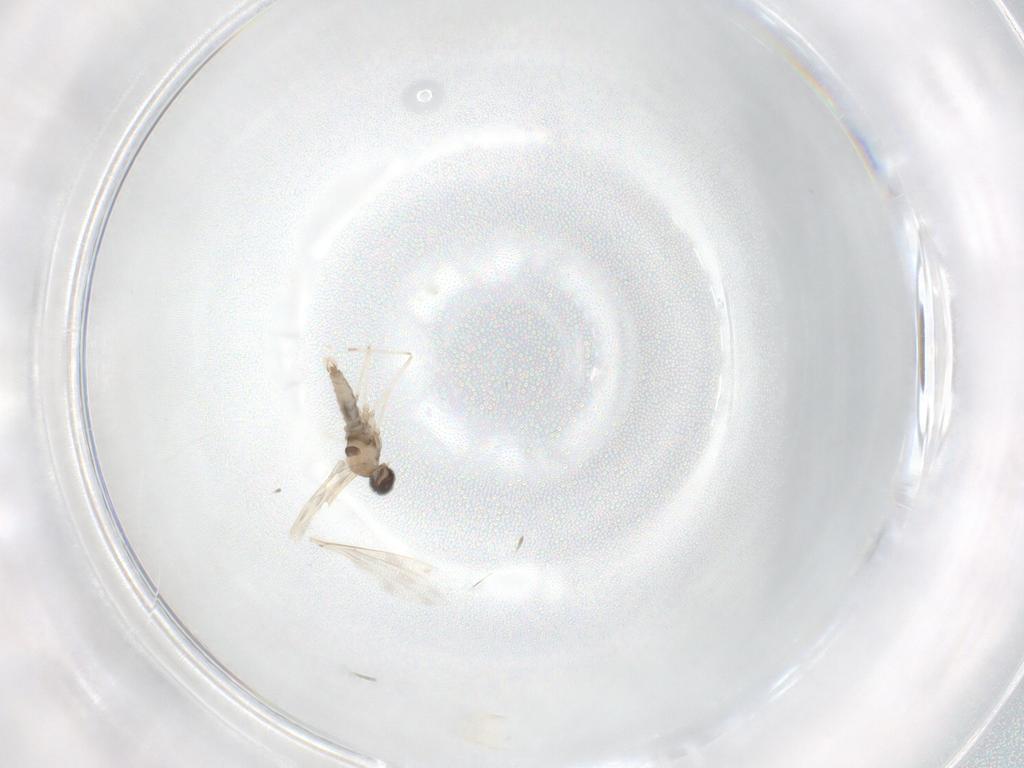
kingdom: Animalia
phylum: Arthropoda
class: Insecta
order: Diptera
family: Cecidomyiidae
